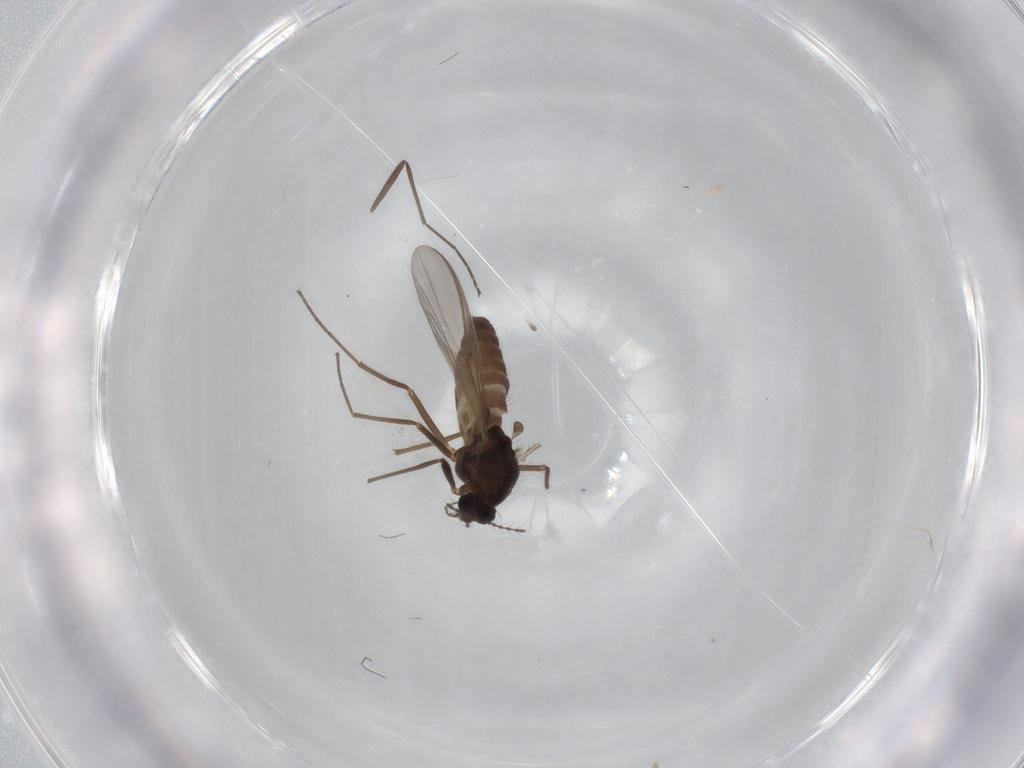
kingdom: Animalia
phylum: Arthropoda
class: Insecta
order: Diptera
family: Chironomidae
